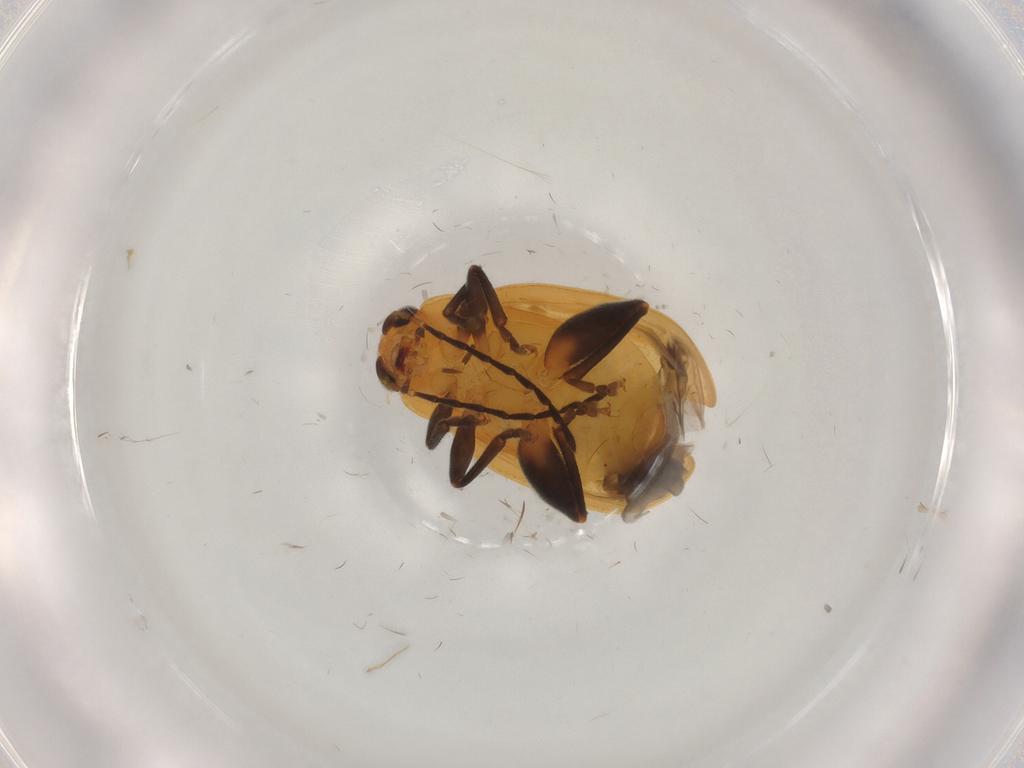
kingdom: Animalia
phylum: Arthropoda
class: Insecta
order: Coleoptera
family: Chrysomelidae
